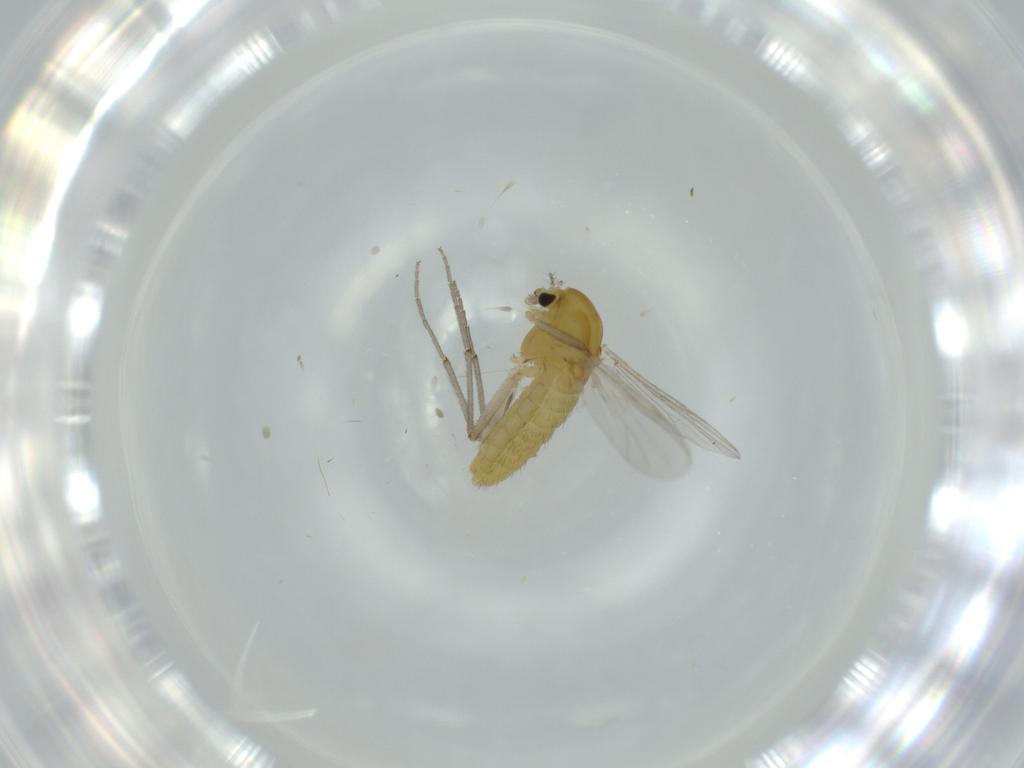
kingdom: Animalia
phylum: Arthropoda
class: Insecta
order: Diptera
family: Chironomidae
